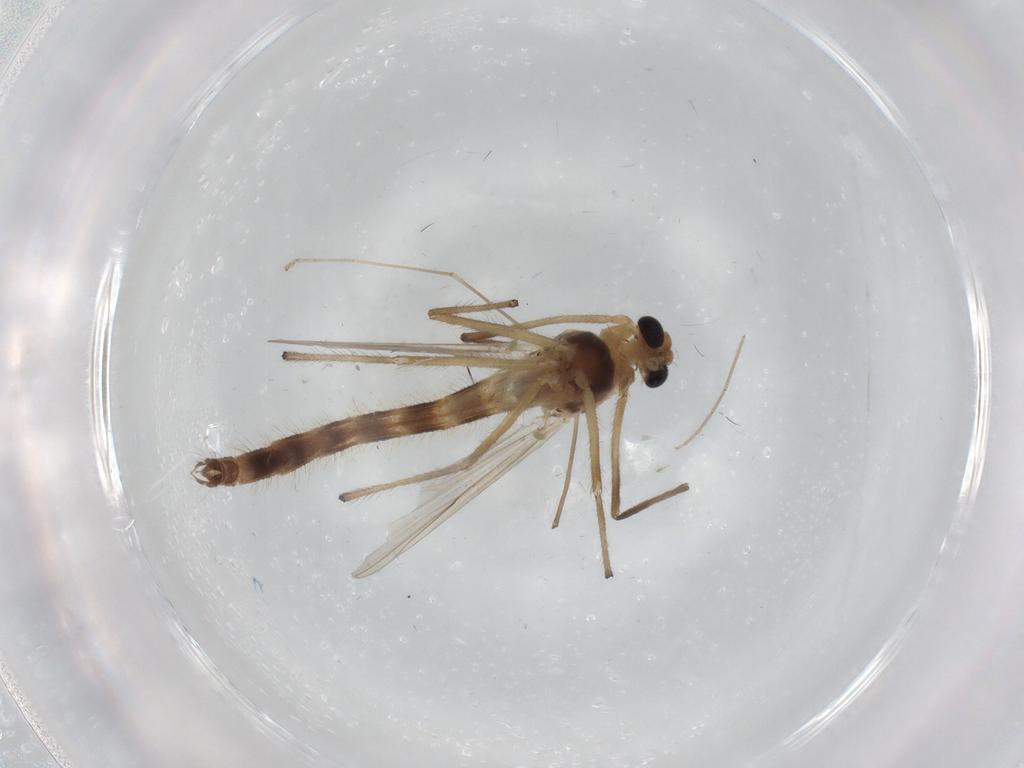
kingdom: Animalia
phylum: Arthropoda
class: Insecta
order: Diptera
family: Chironomidae
